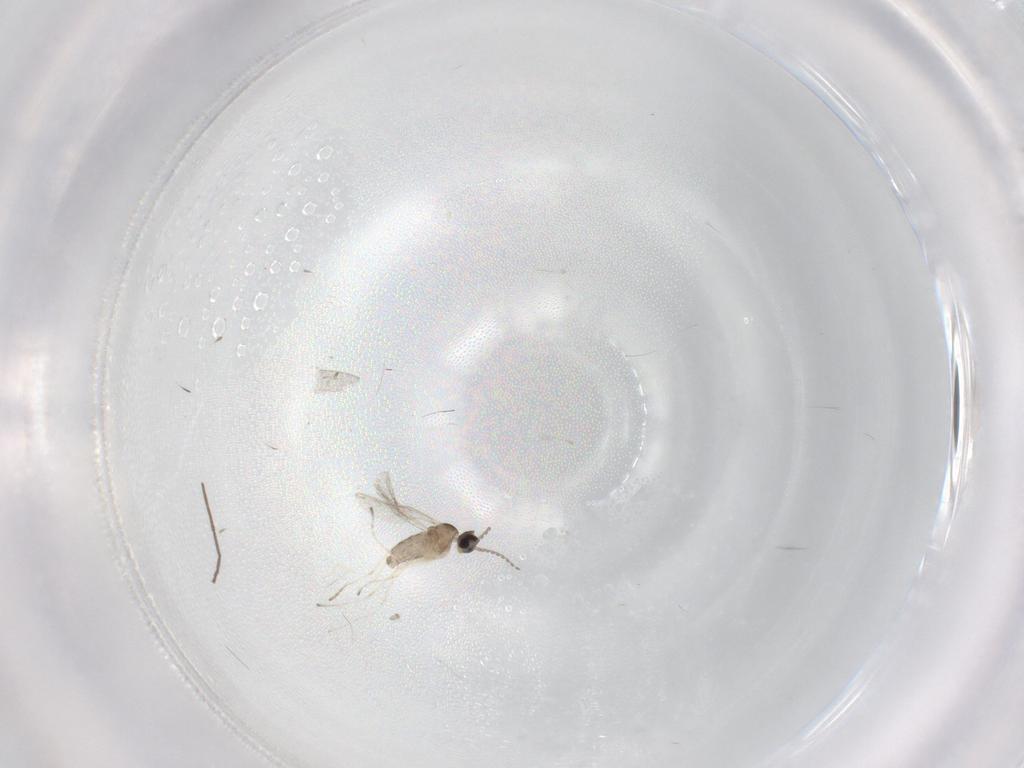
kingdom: Animalia
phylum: Arthropoda
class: Insecta
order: Diptera
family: Cecidomyiidae
